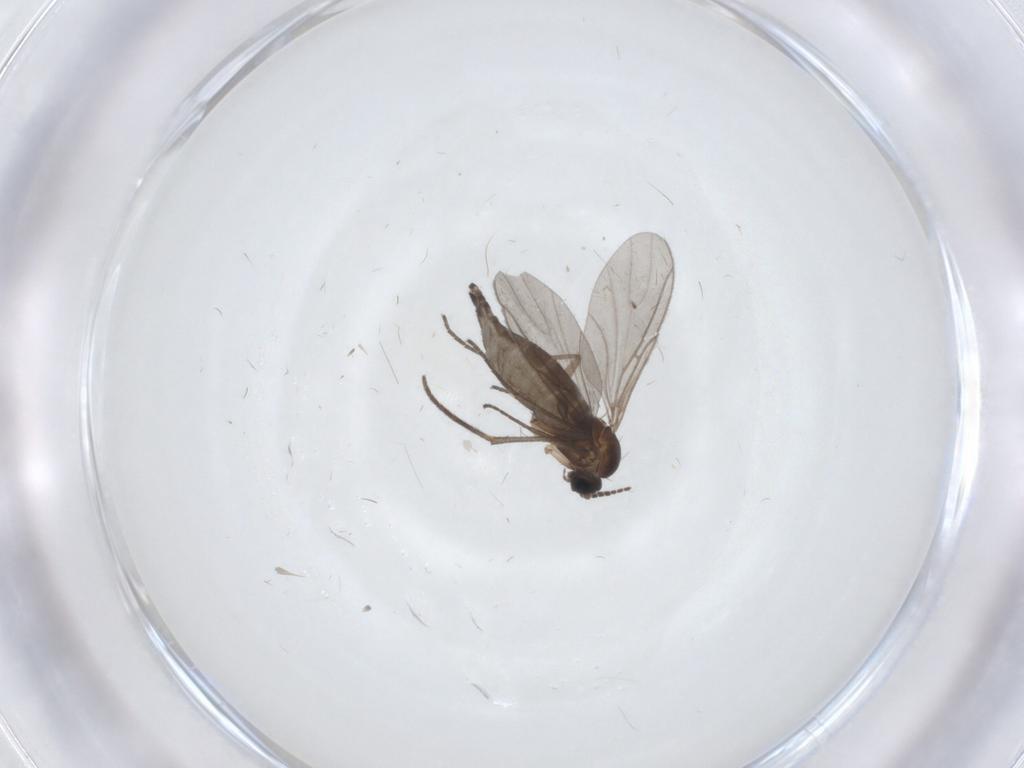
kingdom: Animalia
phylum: Arthropoda
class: Insecta
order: Diptera
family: Sciaridae
